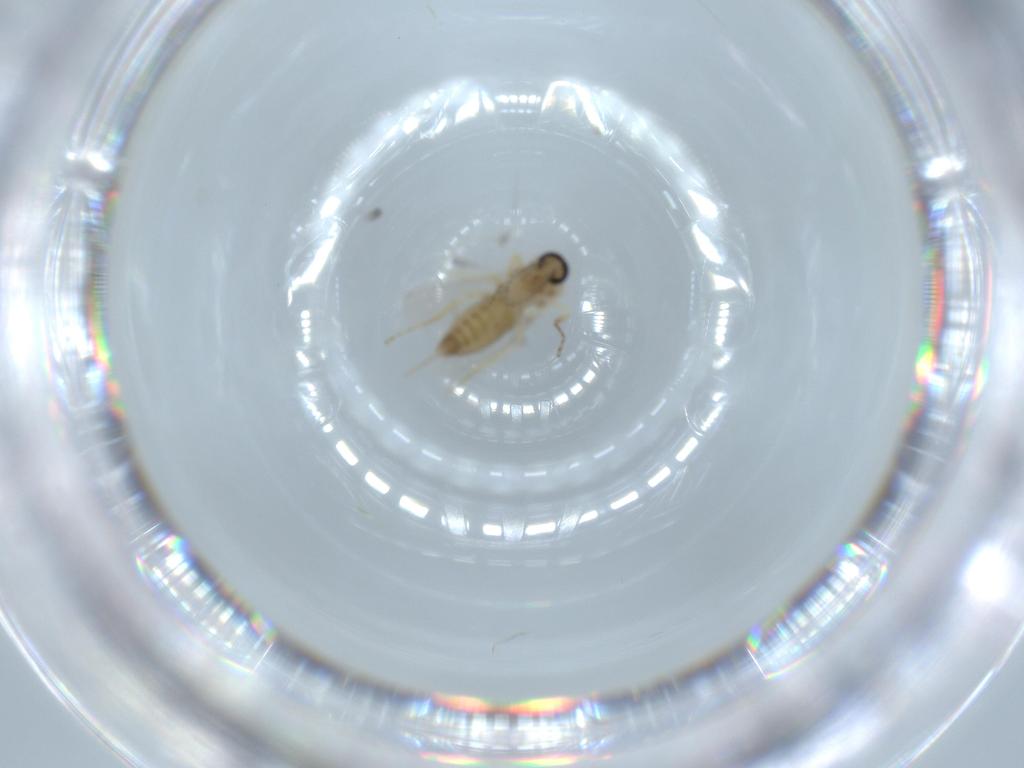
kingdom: Animalia
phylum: Arthropoda
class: Insecta
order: Diptera
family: Ceratopogonidae
